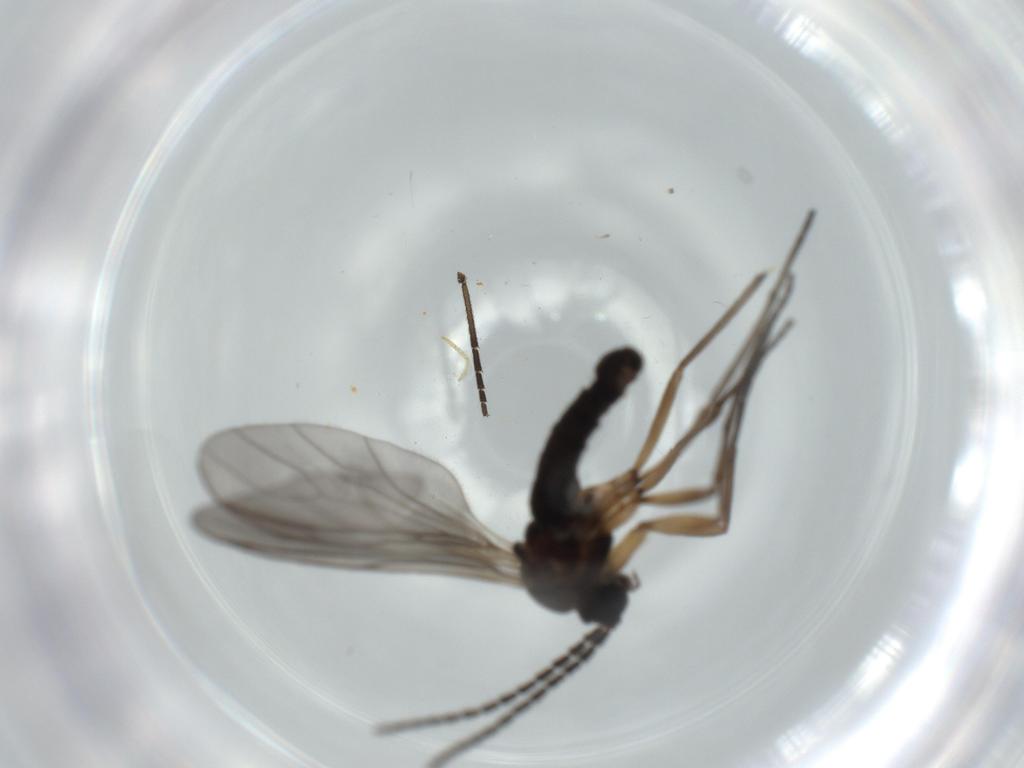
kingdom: Animalia
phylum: Arthropoda
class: Insecta
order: Diptera
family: Sciaridae
